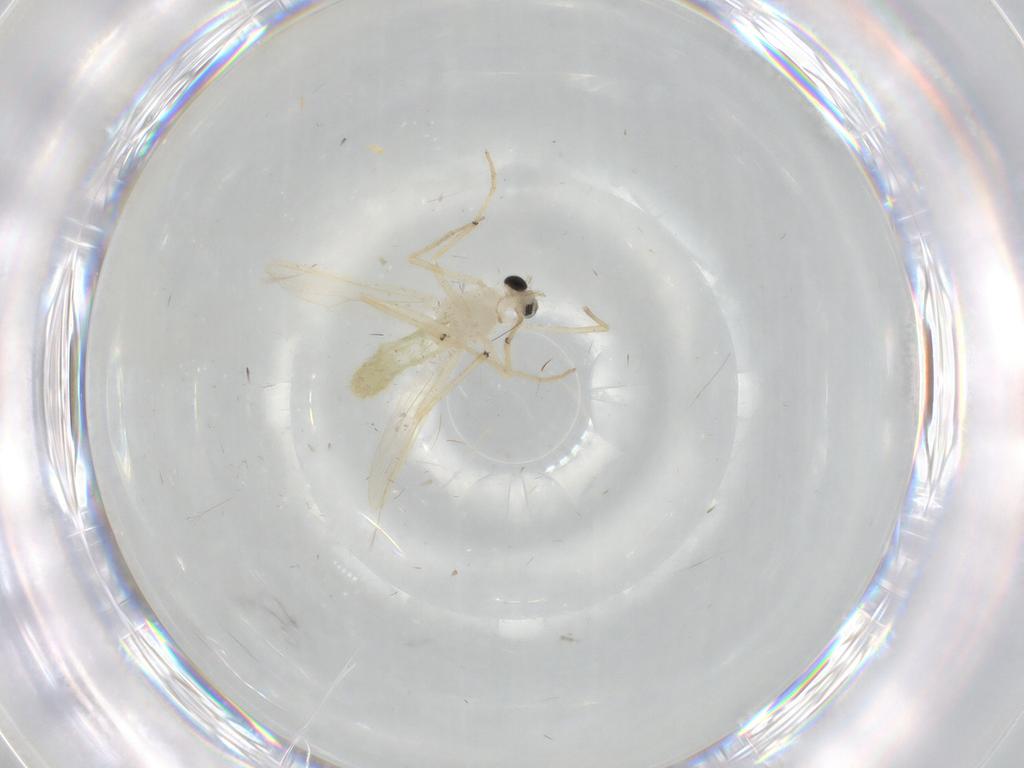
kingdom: Animalia
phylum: Arthropoda
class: Insecta
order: Diptera
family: Chironomidae
